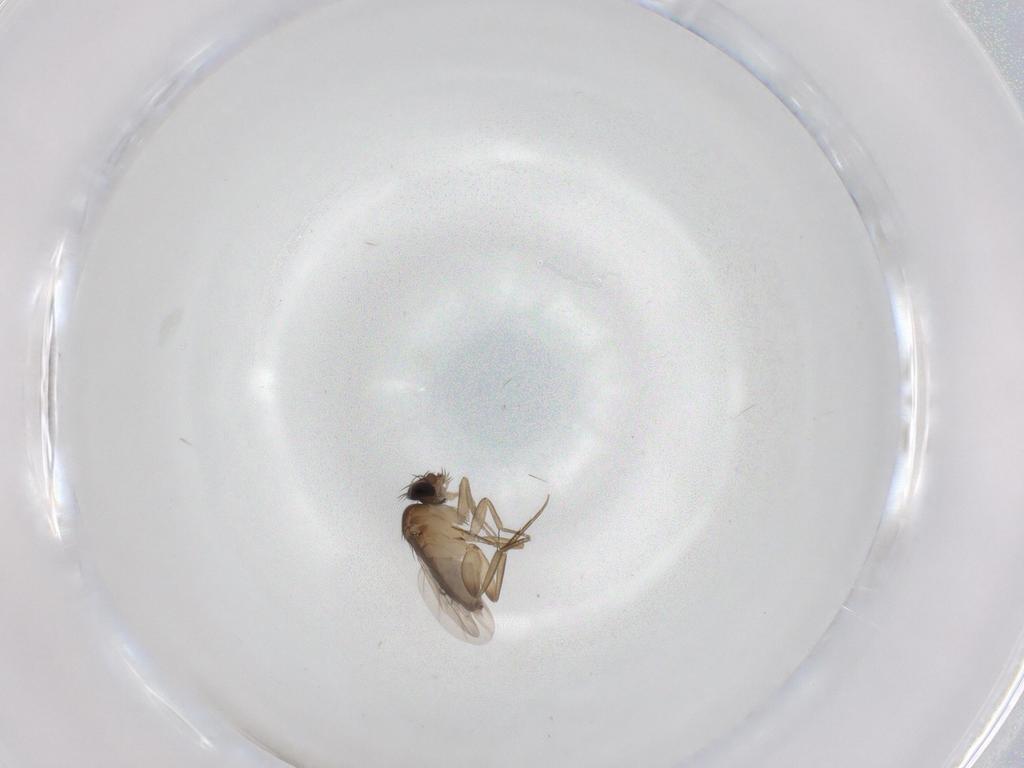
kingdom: Animalia
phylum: Arthropoda
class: Insecta
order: Diptera
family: Phoridae
